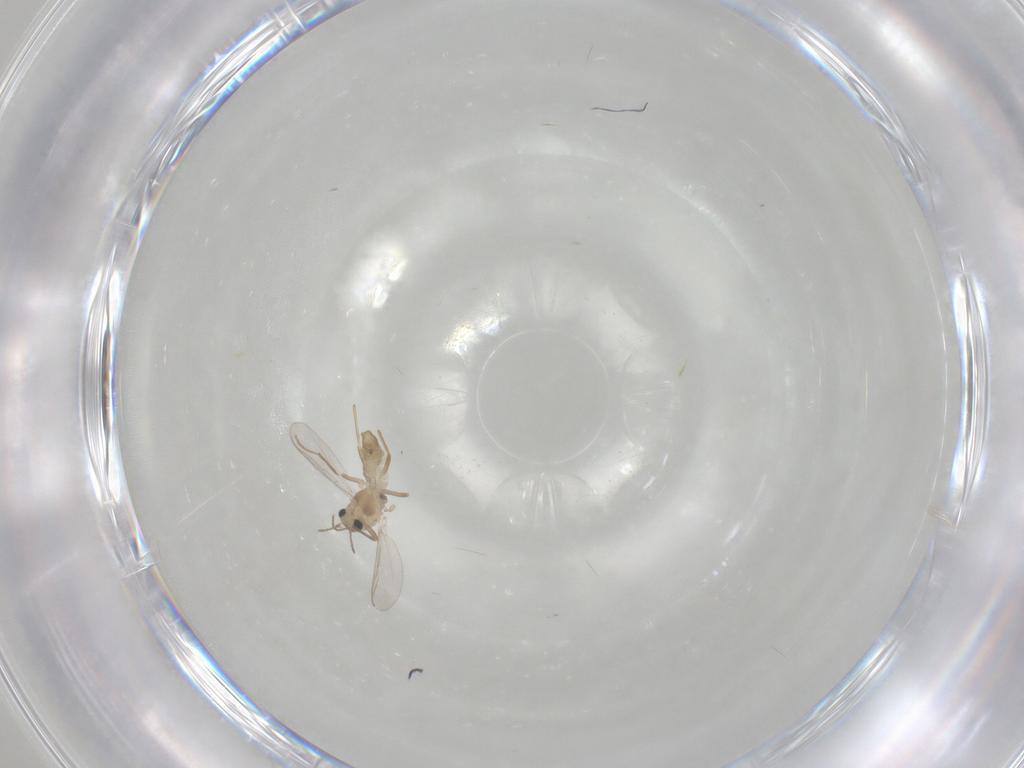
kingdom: Animalia
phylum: Arthropoda
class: Insecta
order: Diptera
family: Chironomidae
